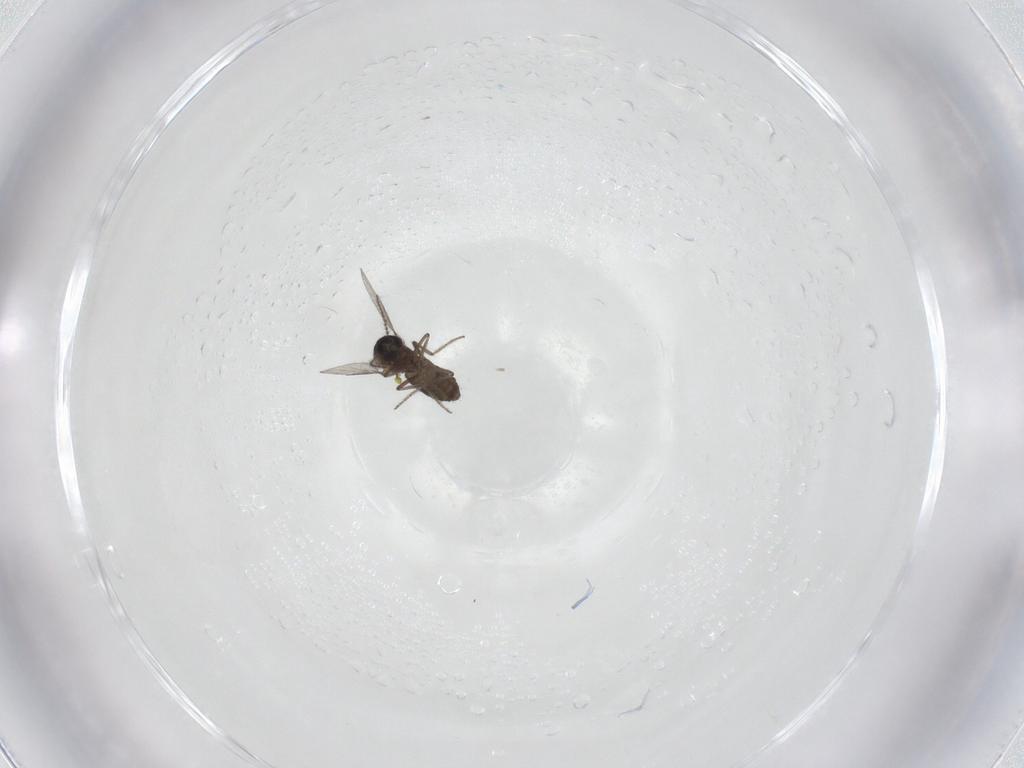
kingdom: Animalia
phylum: Arthropoda
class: Insecta
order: Diptera
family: Ceratopogonidae
